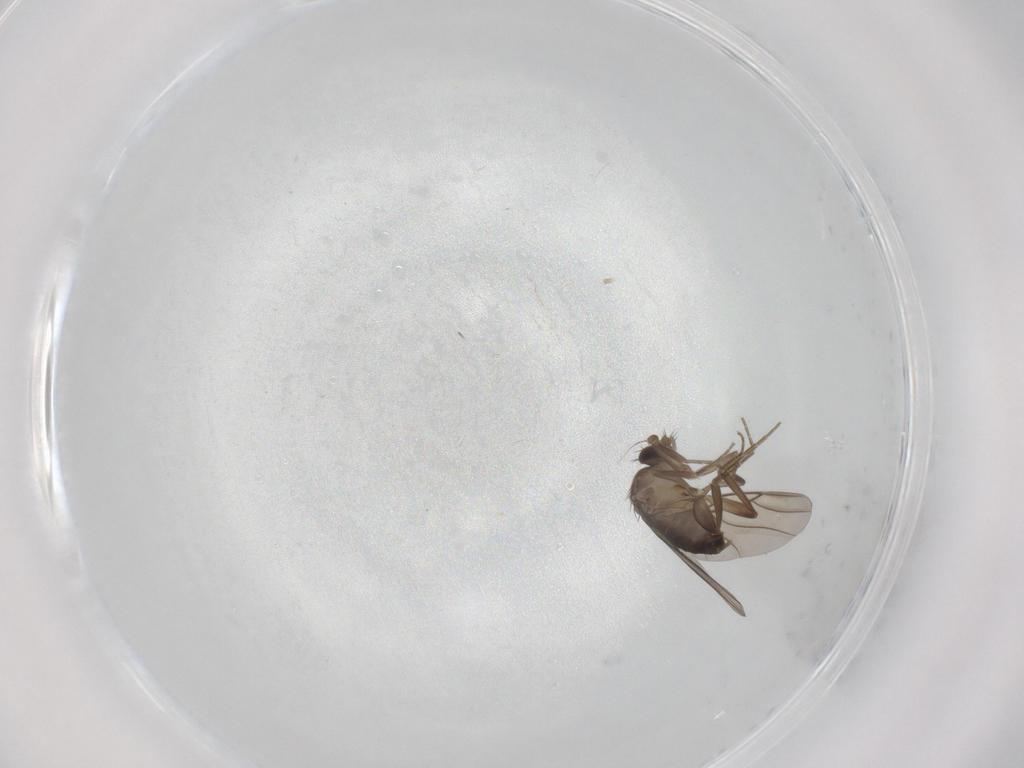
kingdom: Animalia
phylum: Arthropoda
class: Insecta
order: Diptera
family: Phoridae
